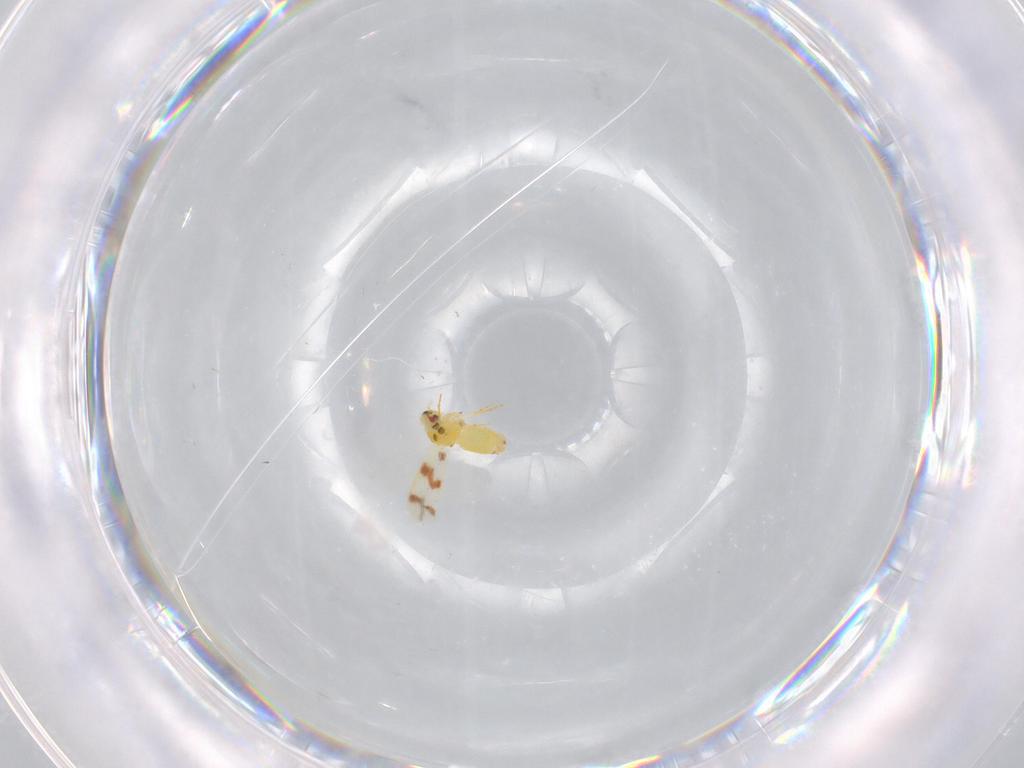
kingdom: Animalia
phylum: Arthropoda
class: Insecta
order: Hemiptera
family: Aleyrodidae
